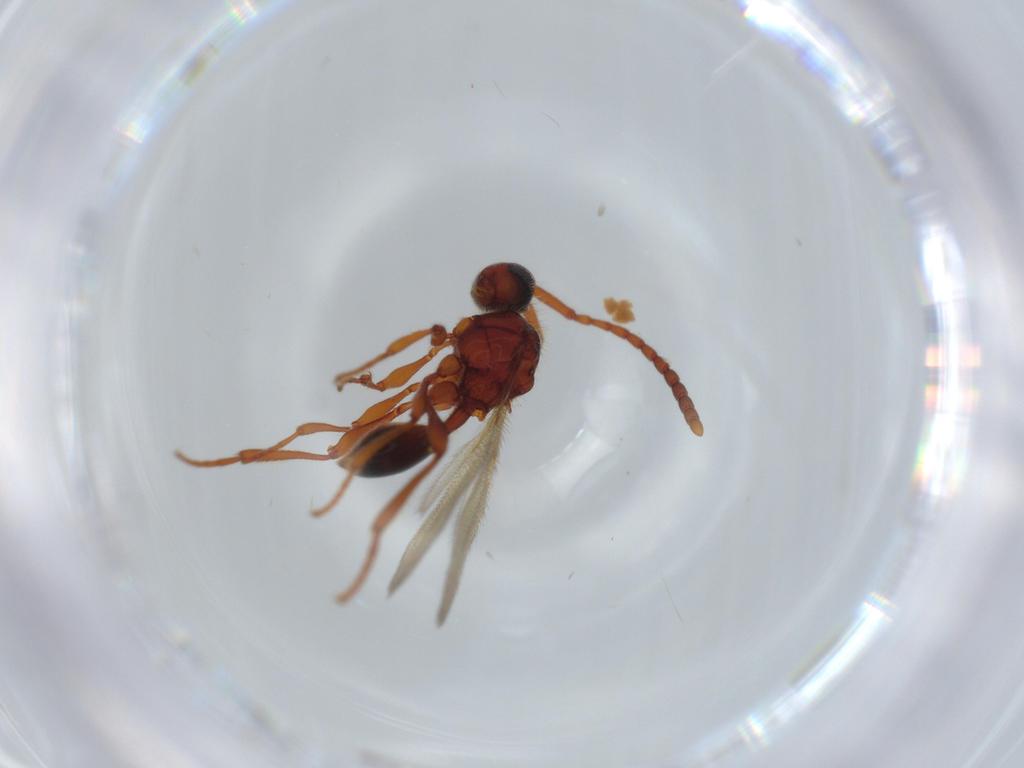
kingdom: Animalia
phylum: Arthropoda
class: Insecta
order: Hymenoptera
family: Diapriidae
